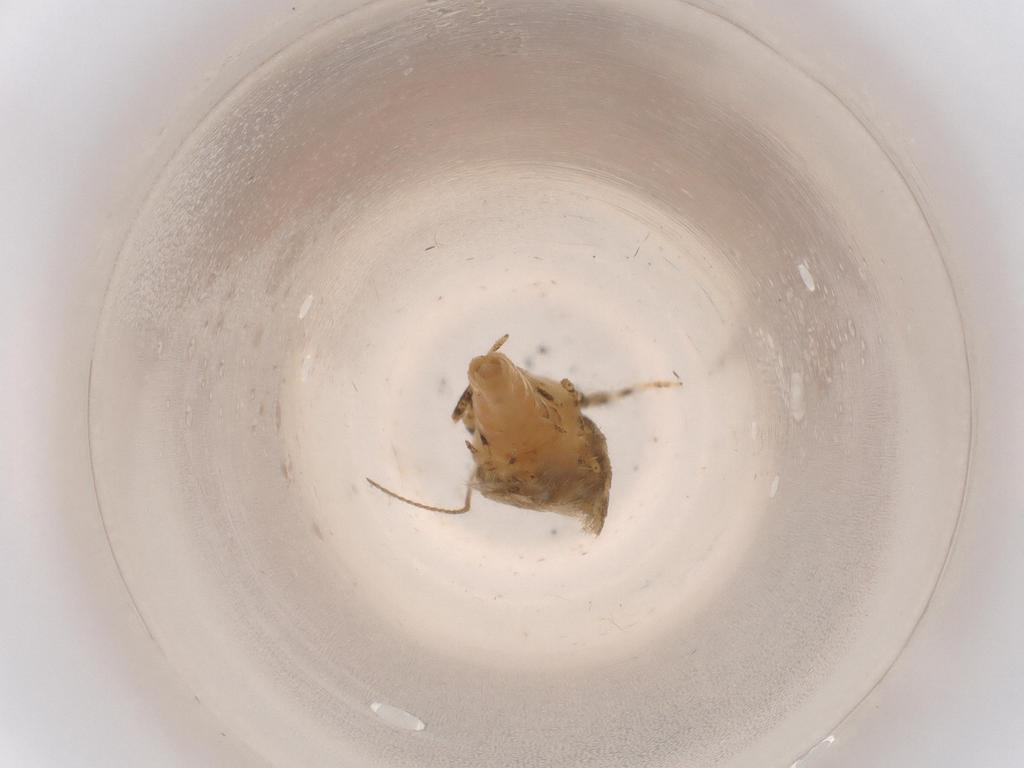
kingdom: Animalia
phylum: Arthropoda
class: Insecta
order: Lepidoptera
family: Cosmopterigidae
